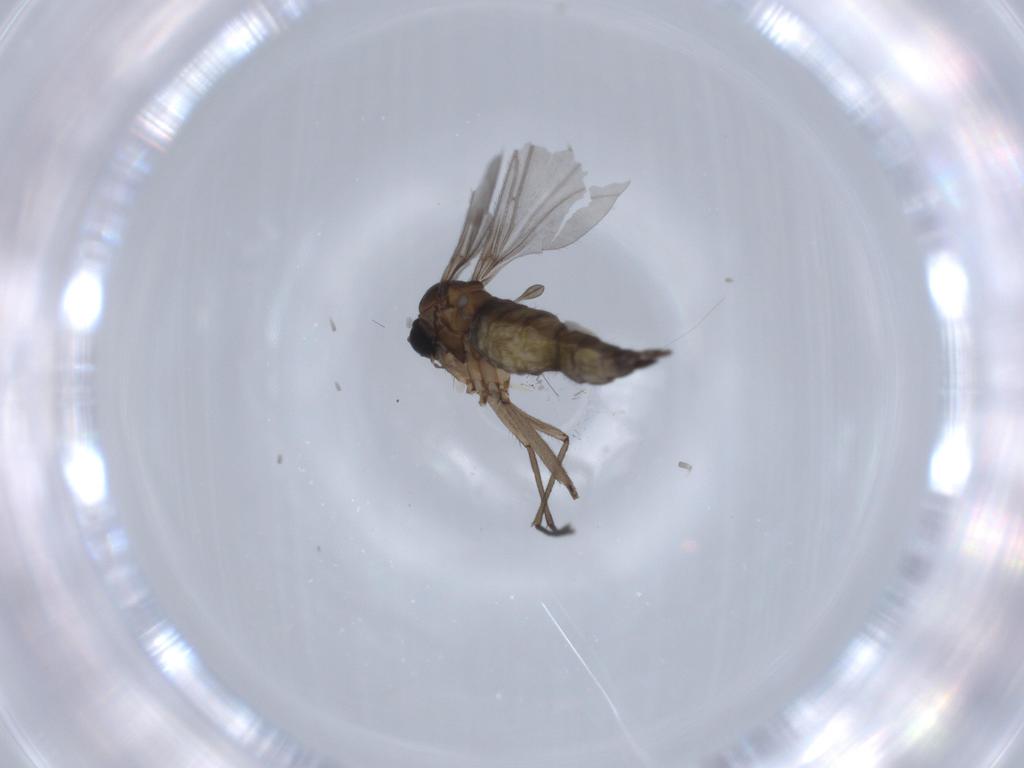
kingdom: Animalia
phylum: Arthropoda
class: Insecta
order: Diptera
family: Sciaridae
